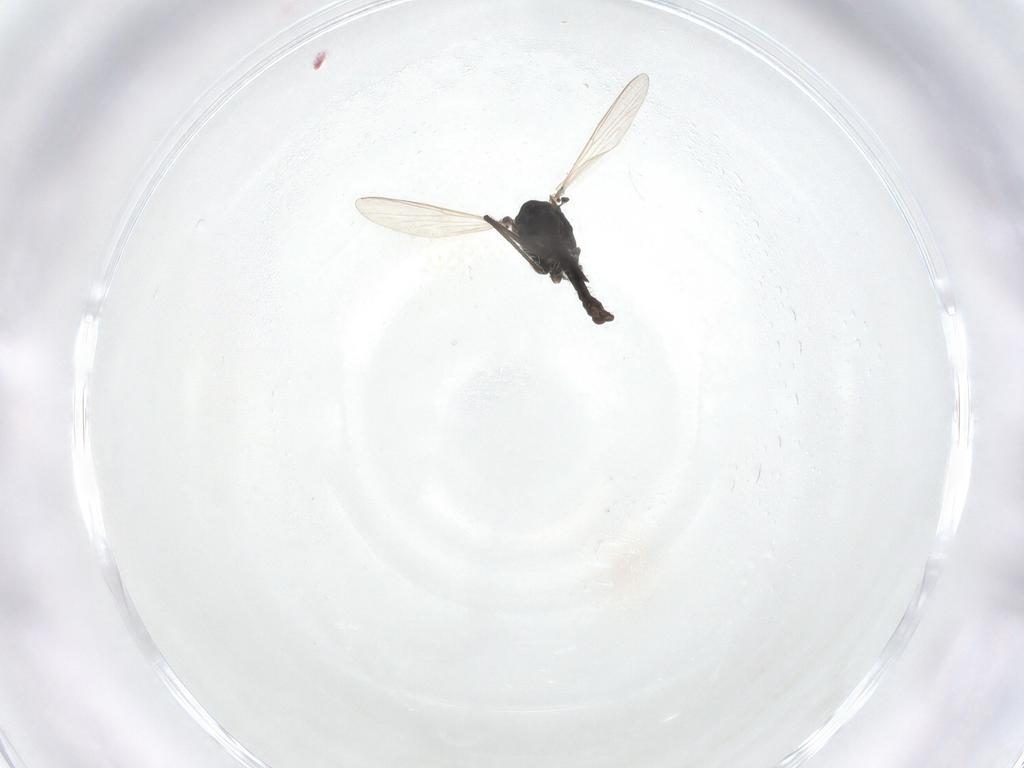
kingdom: Animalia
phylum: Arthropoda
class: Insecta
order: Diptera
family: Chironomidae
